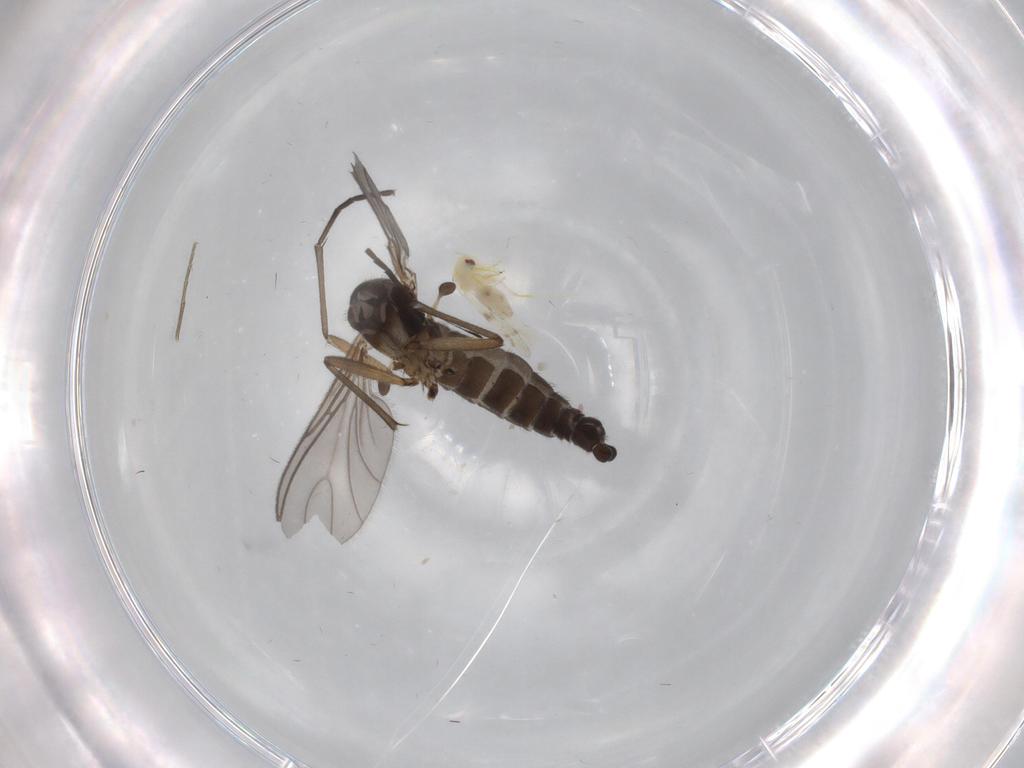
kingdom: Animalia
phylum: Arthropoda
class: Insecta
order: Diptera
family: Sciaridae
